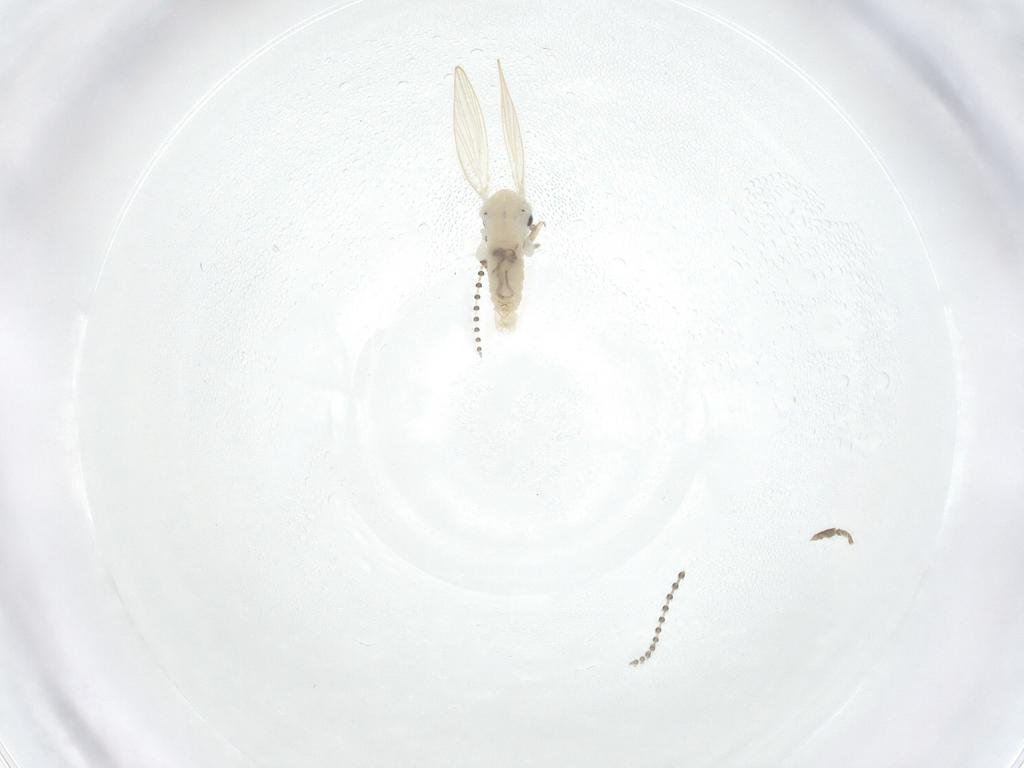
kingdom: Animalia
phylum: Arthropoda
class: Insecta
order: Diptera
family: Psychodidae
